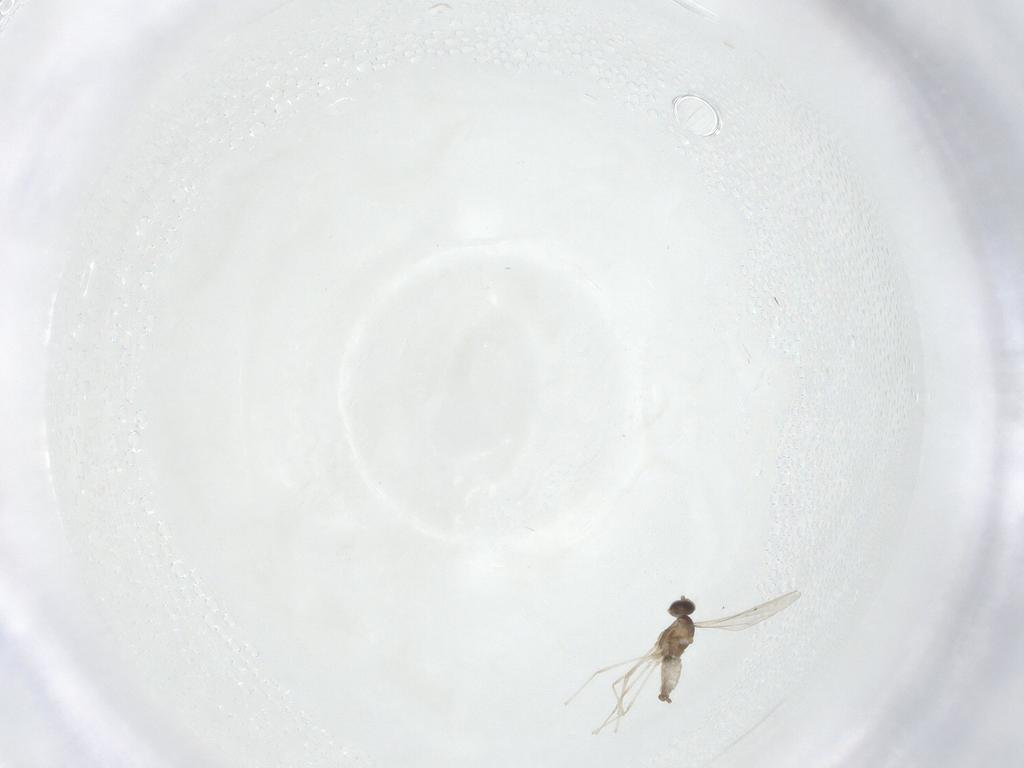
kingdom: Animalia
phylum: Arthropoda
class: Insecta
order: Diptera
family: Cecidomyiidae
